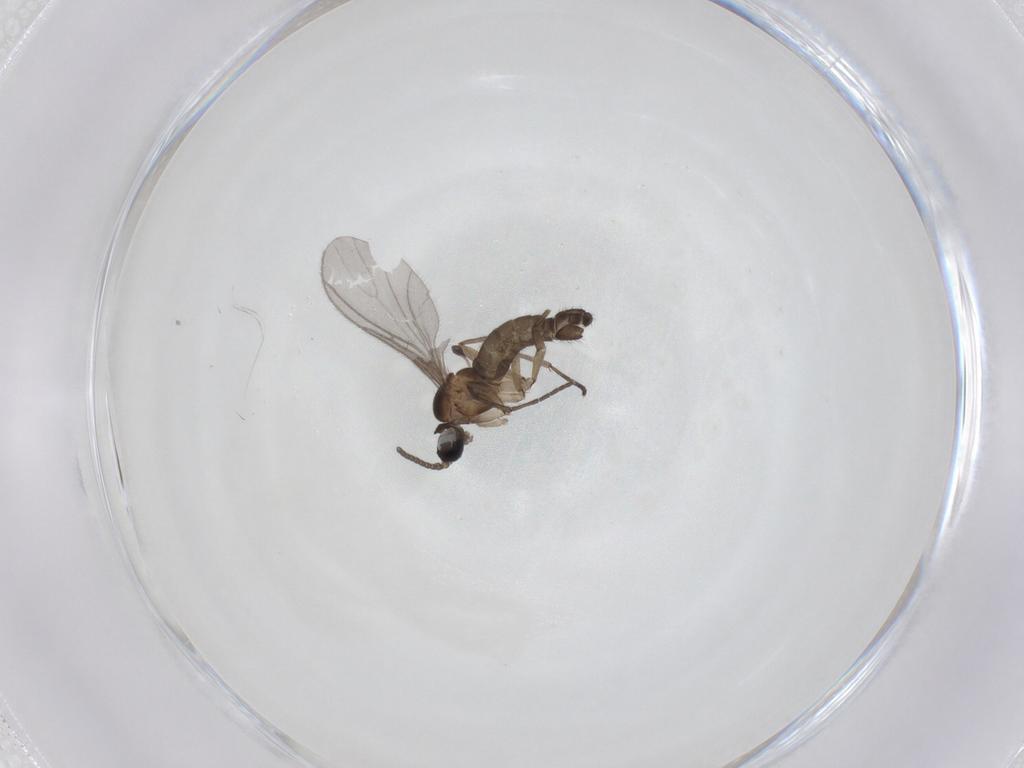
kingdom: Animalia
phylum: Arthropoda
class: Insecta
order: Diptera
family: Sciaridae
